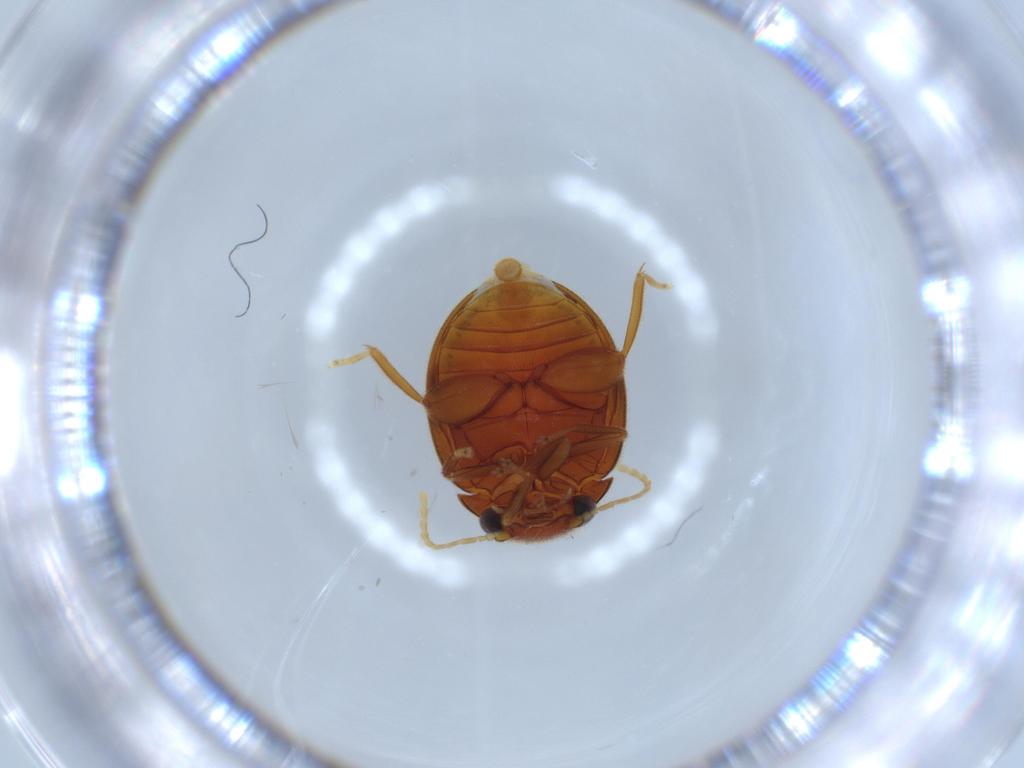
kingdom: Animalia
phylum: Arthropoda
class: Insecta
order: Coleoptera
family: Scirtidae
